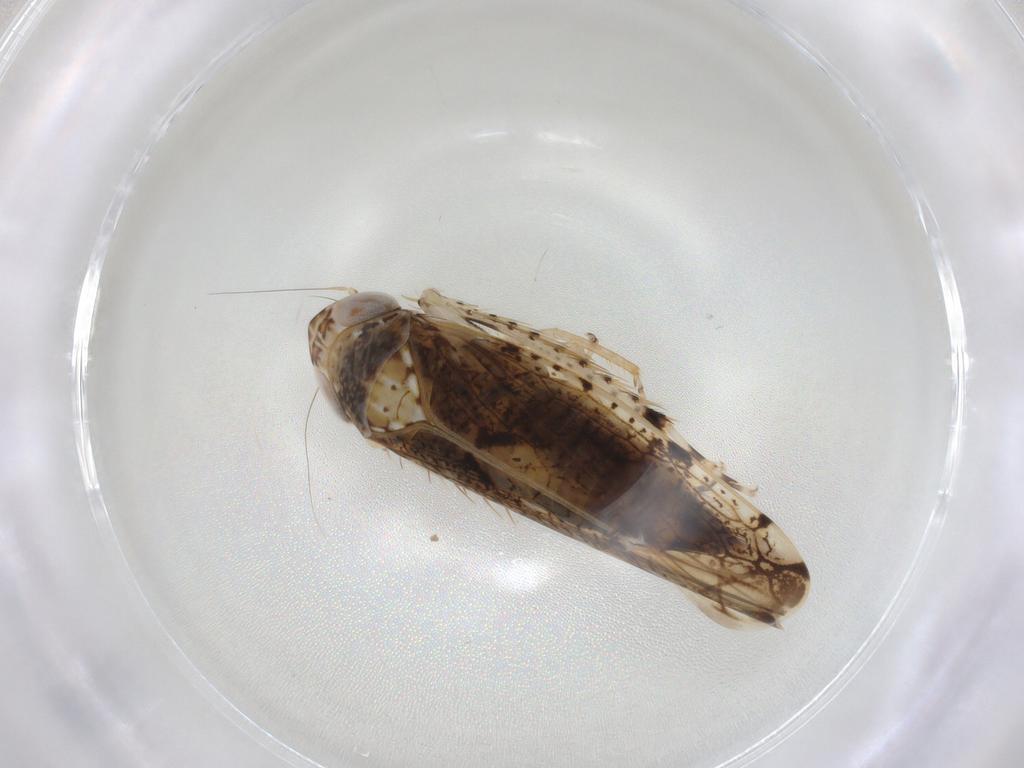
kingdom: Animalia
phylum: Arthropoda
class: Insecta
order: Hemiptera
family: Cicadellidae
